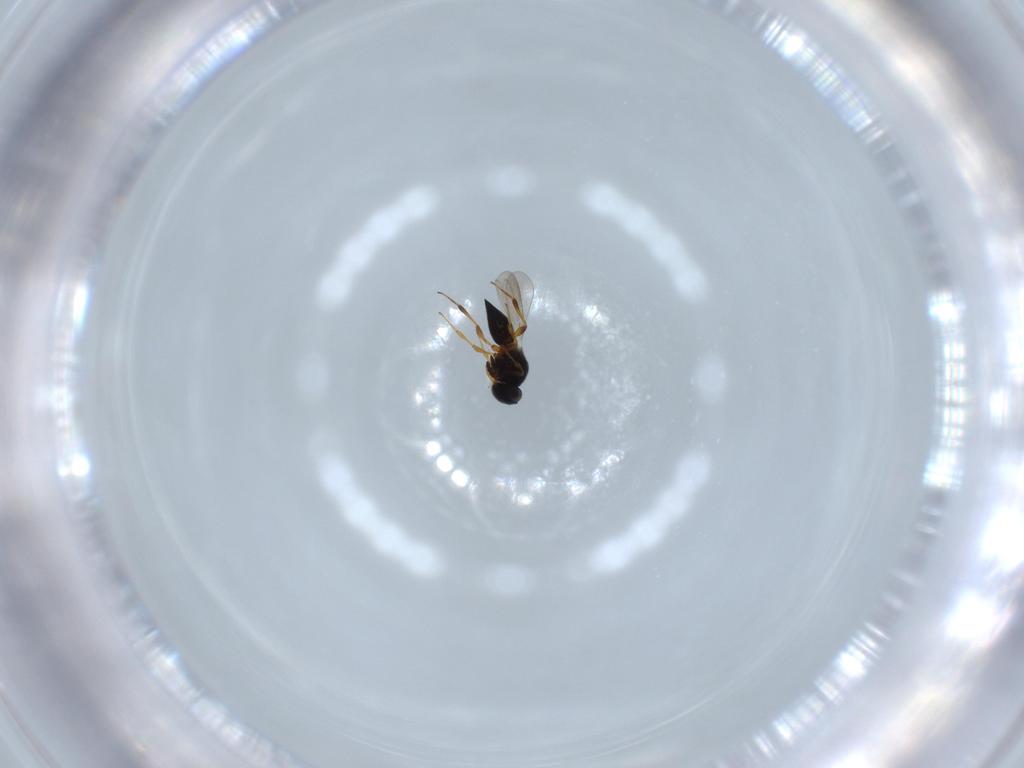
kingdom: Animalia
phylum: Arthropoda
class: Insecta
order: Hymenoptera
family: Platygastridae
